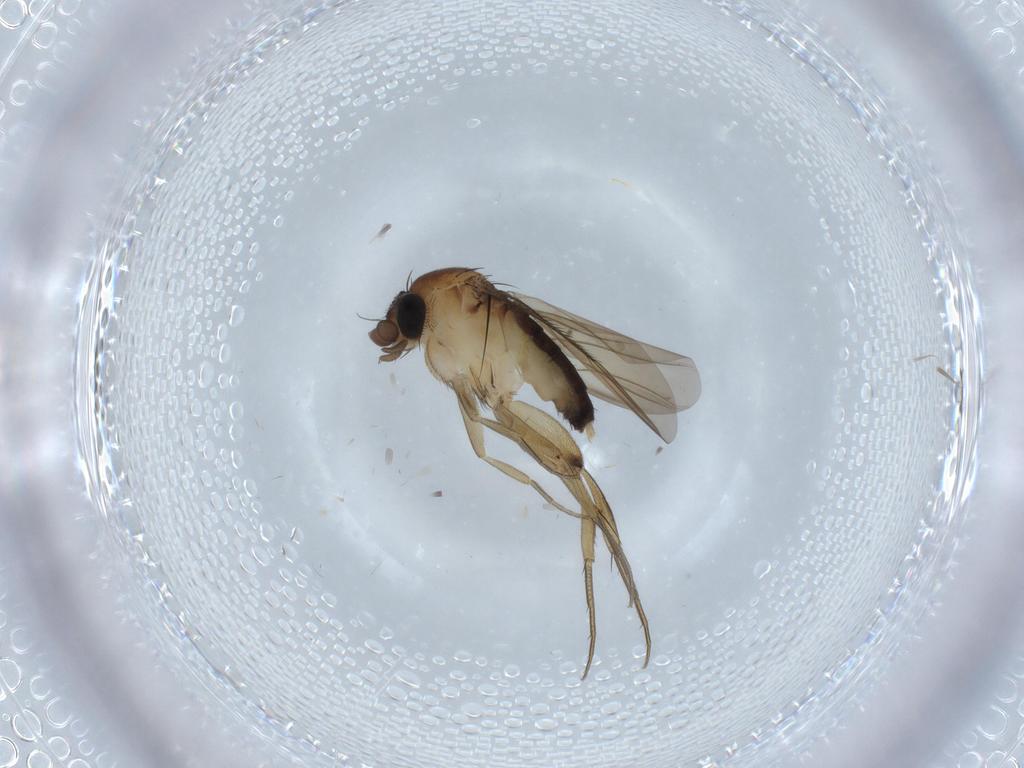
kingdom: Animalia
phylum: Arthropoda
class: Insecta
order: Diptera
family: Phoridae
